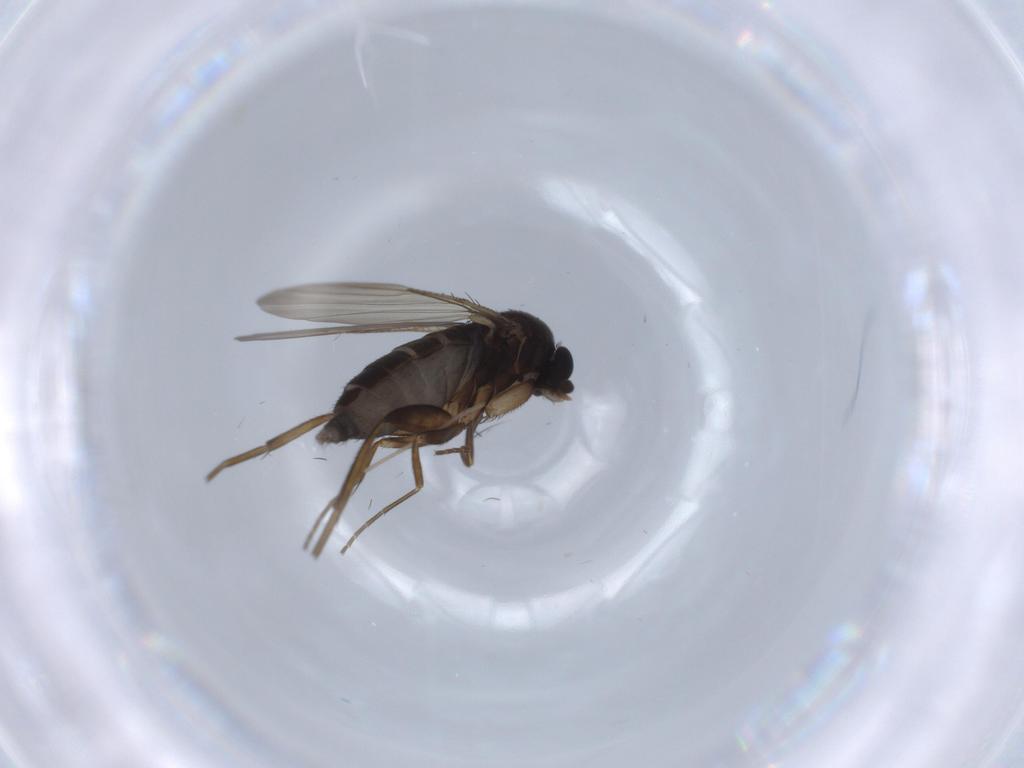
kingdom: Animalia
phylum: Arthropoda
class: Insecta
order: Diptera
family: Phoridae
